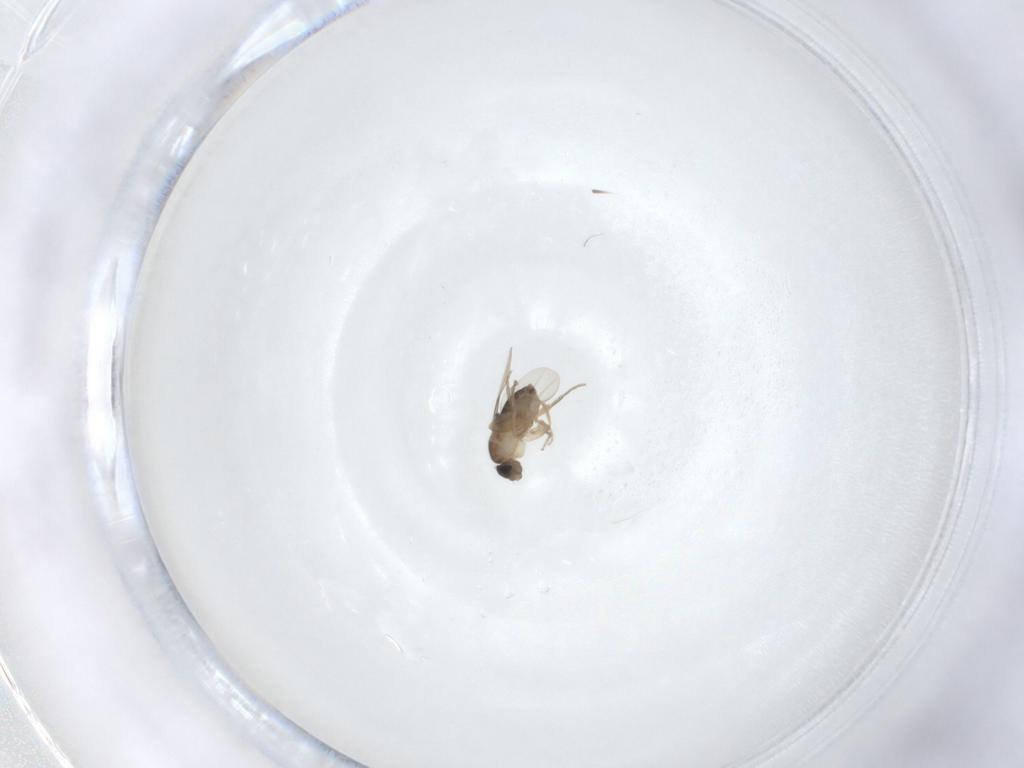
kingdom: Animalia
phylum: Arthropoda
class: Insecta
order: Diptera
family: Phoridae
